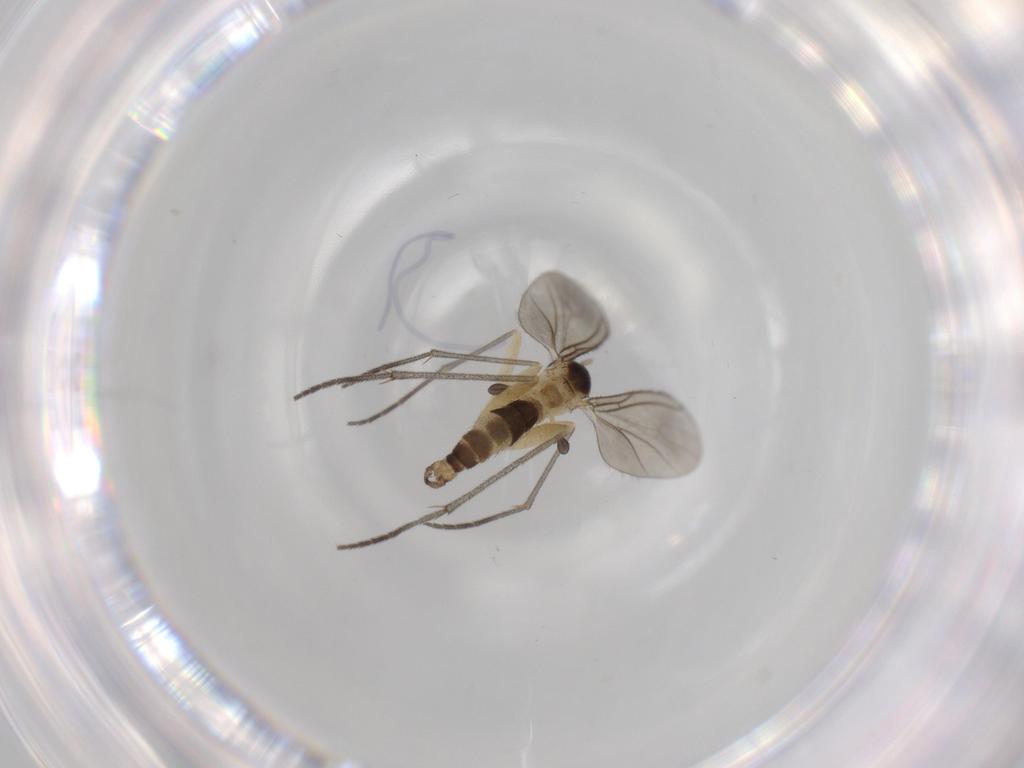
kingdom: Animalia
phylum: Arthropoda
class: Insecta
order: Diptera
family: Sciaridae
